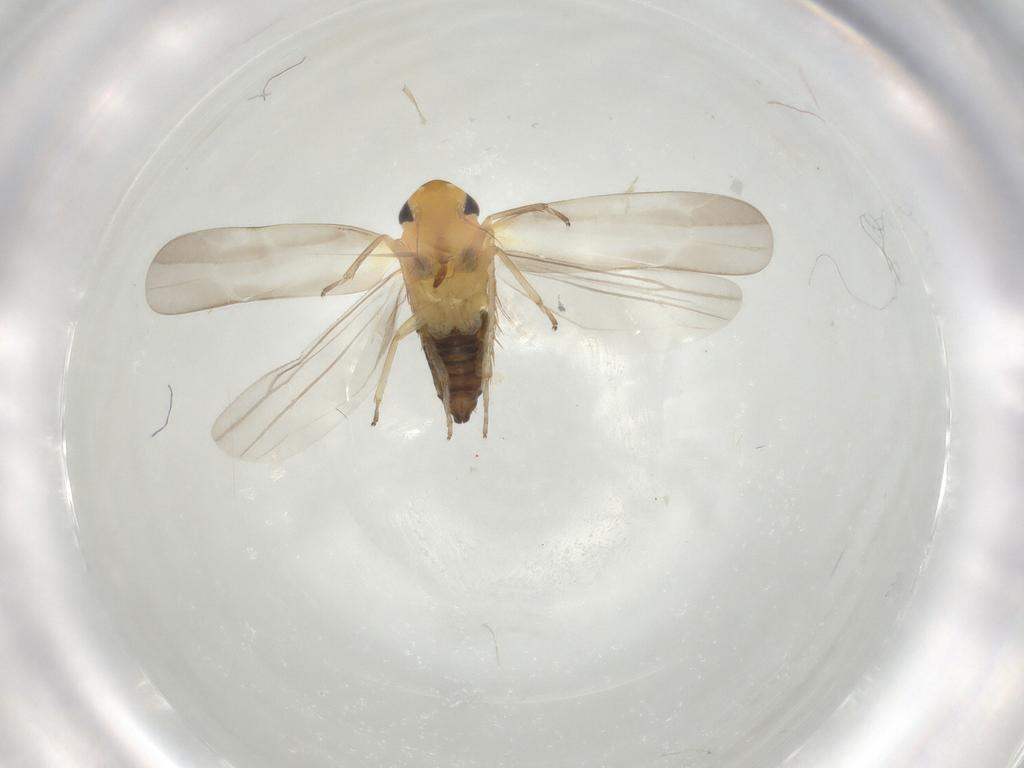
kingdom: Animalia
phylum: Arthropoda
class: Insecta
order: Hemiptera
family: Cicadellidae
